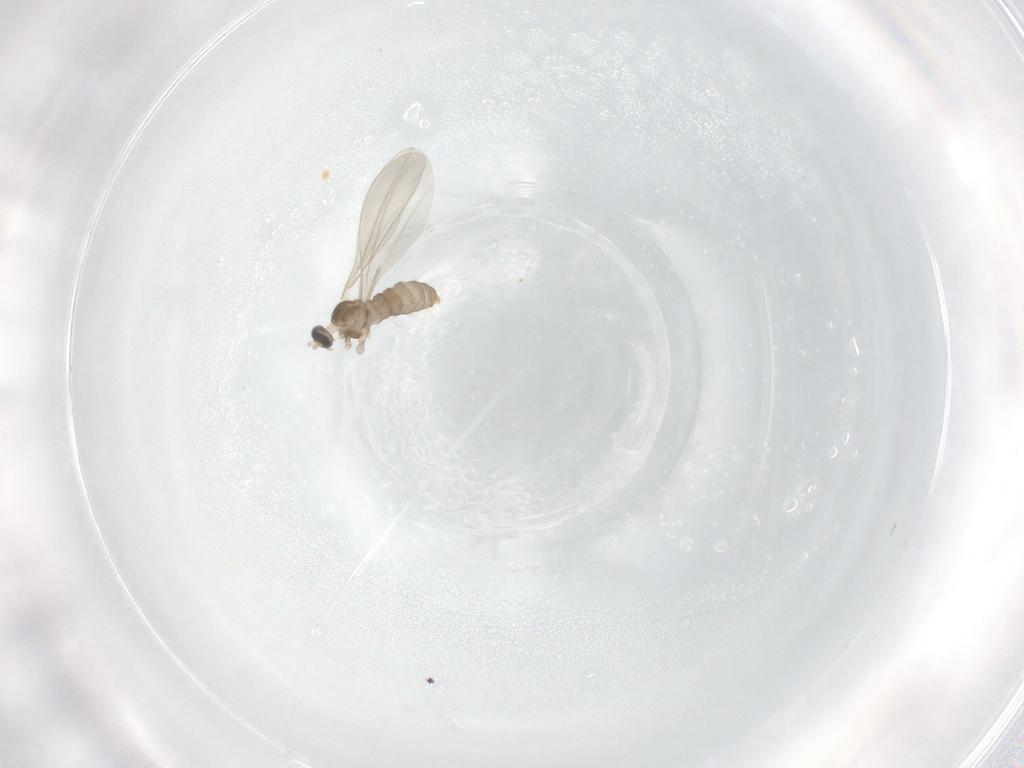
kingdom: Animalia
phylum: Arthropoda
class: Insecta
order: Diptera
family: Cecidomyiidae
